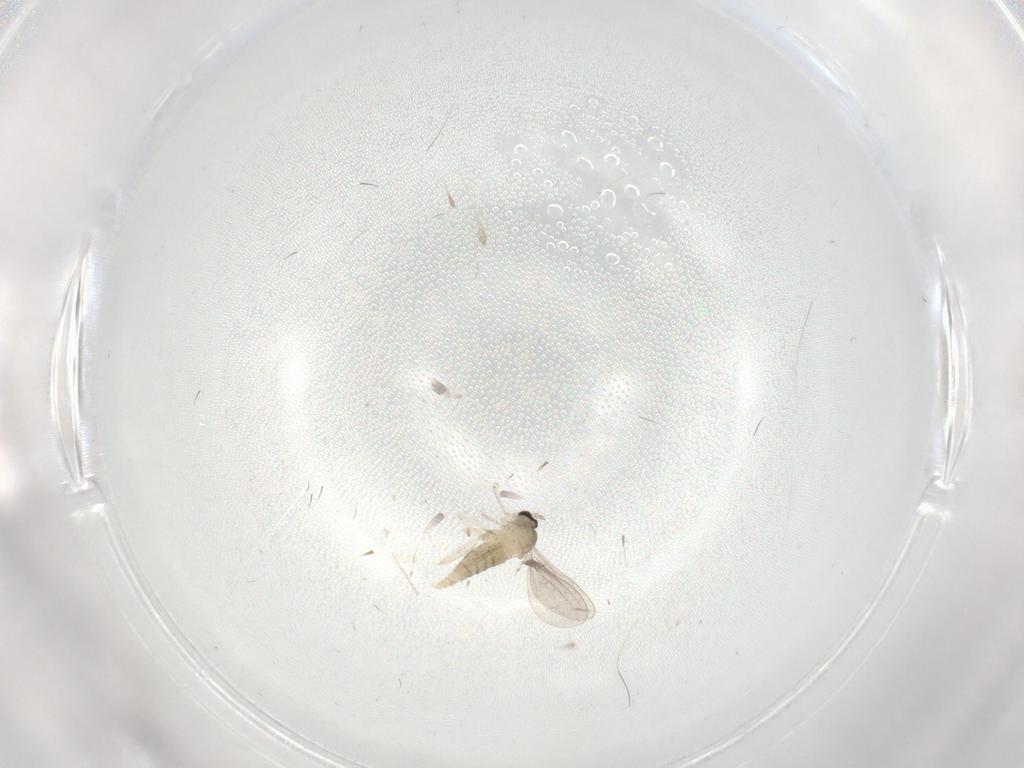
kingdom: Animalia
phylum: Arthropoda
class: Insecta
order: Diptera
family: Cecidomyiidae
